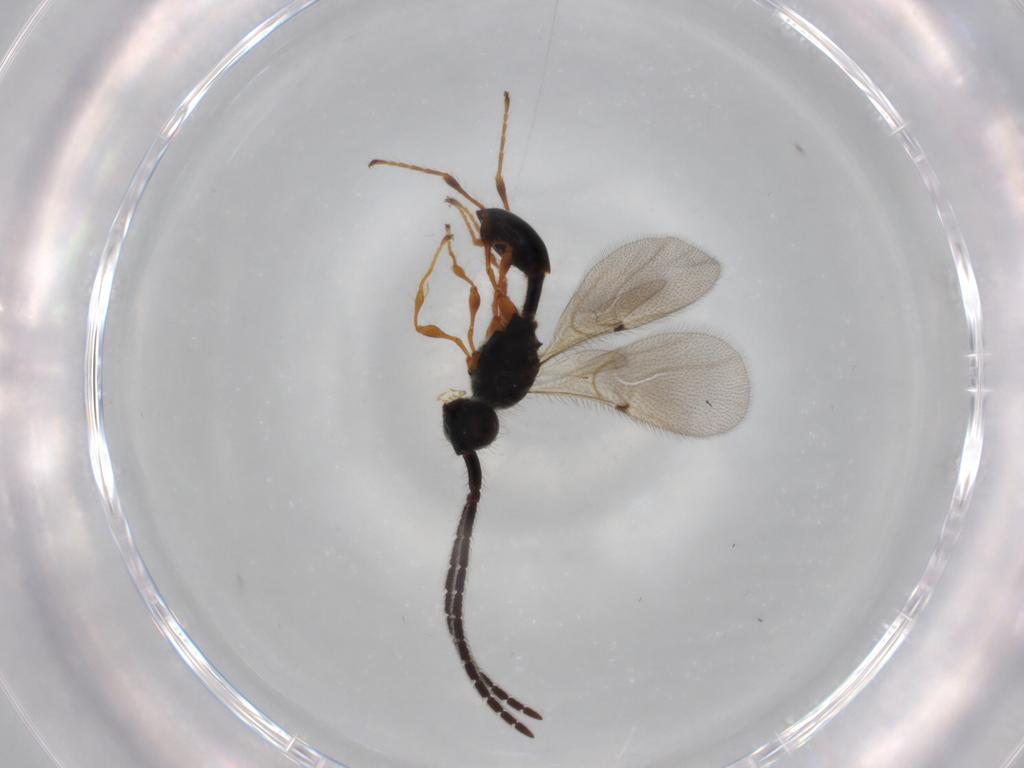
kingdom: Animalia
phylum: Arthropoda
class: Insecta
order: Hymenoptera
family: Diapriidae
